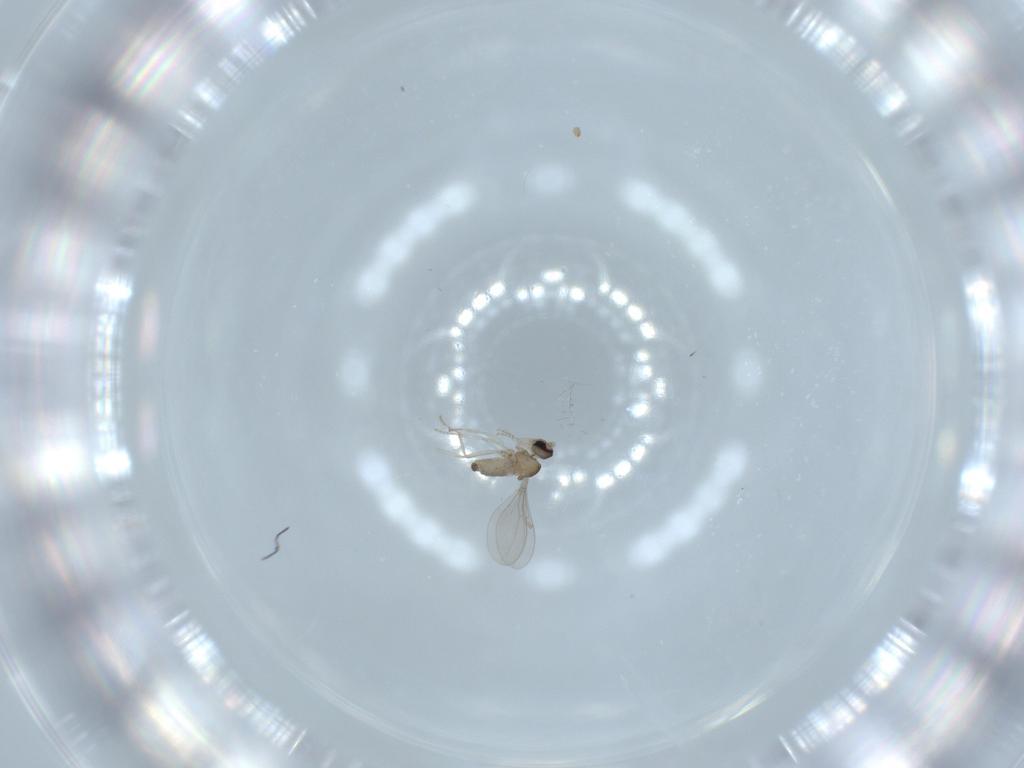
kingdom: Animalia
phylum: Arthropoda
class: Insecta
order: Diptera
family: Cecidomyiidae
